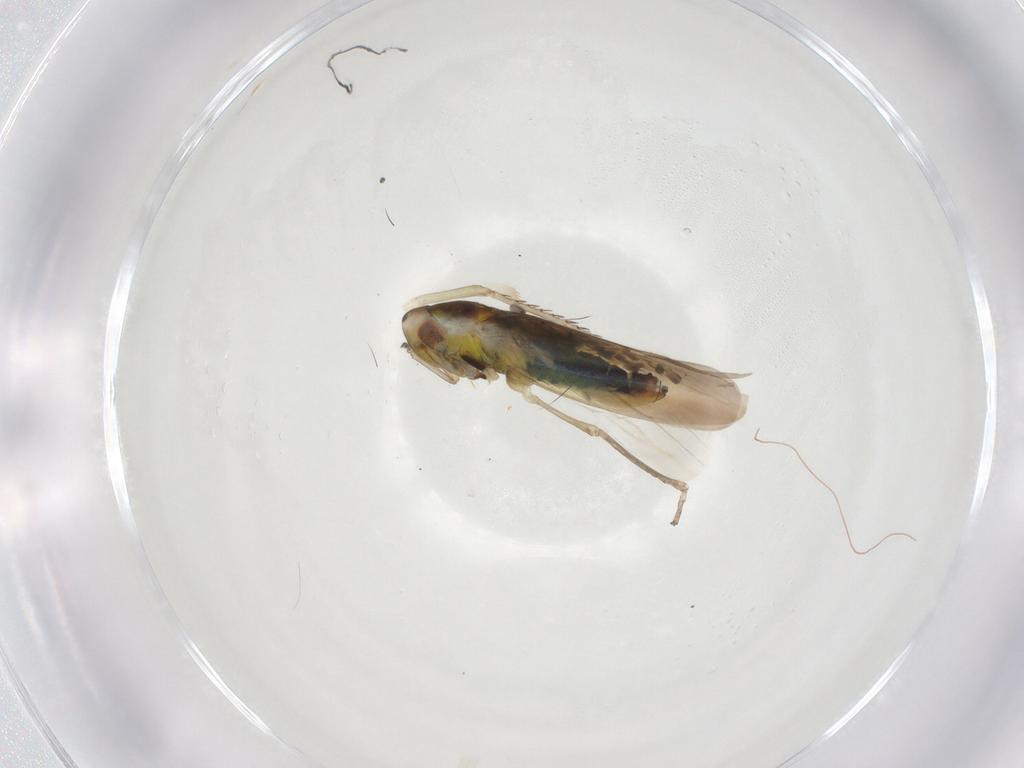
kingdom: Animalia
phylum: Arthropoda
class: Insecta
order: Hemiptera
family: Cicadellidae
